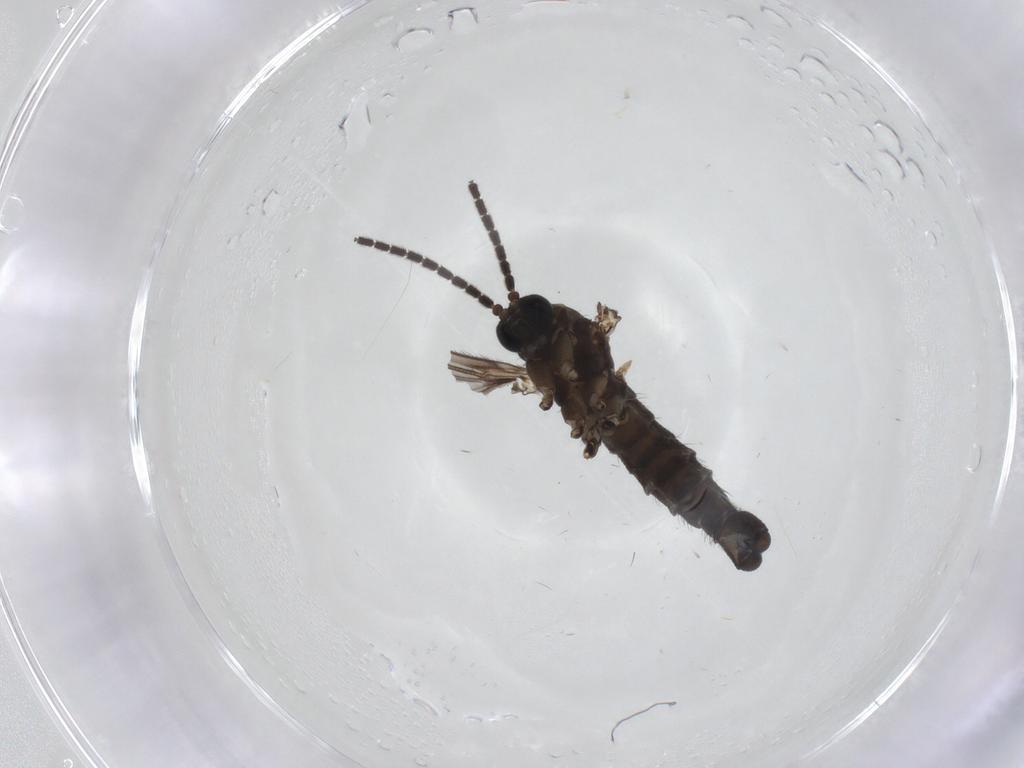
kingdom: Animalia
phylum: Arthropoda
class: Insecta
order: Diptera
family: Sciaridae
